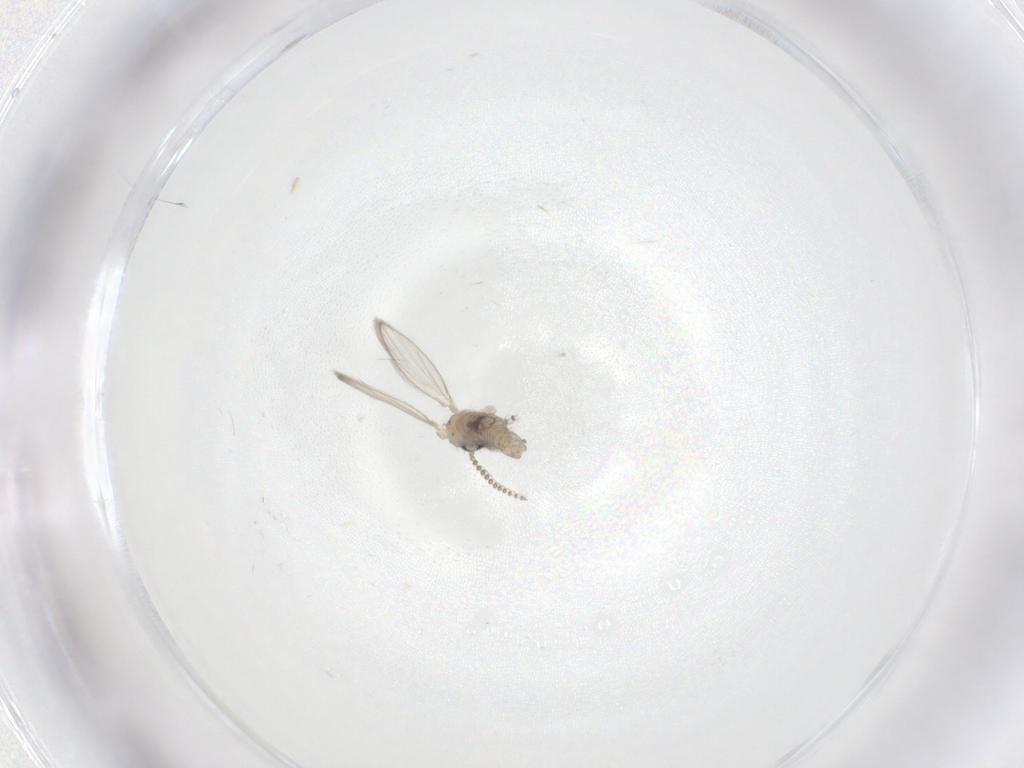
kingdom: Animalia
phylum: Arthropoda
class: Insecta
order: Diptera
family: Psychodidae
